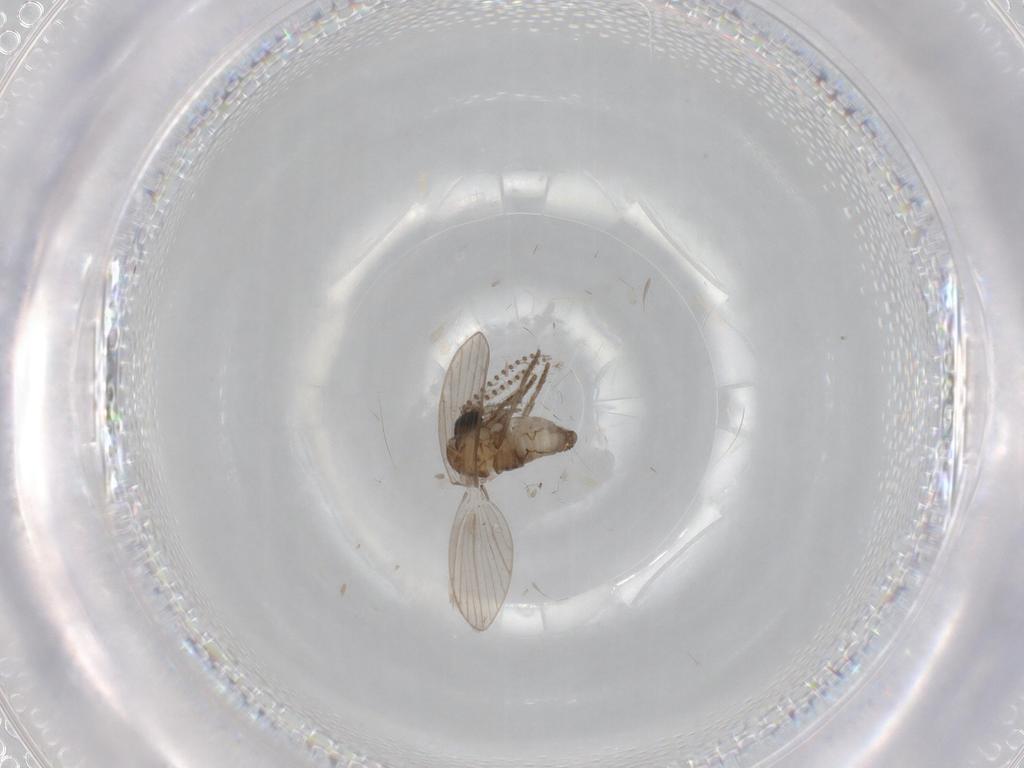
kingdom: Animalia
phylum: Arthropoda
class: Insecta
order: Diptera
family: Psychodidae
